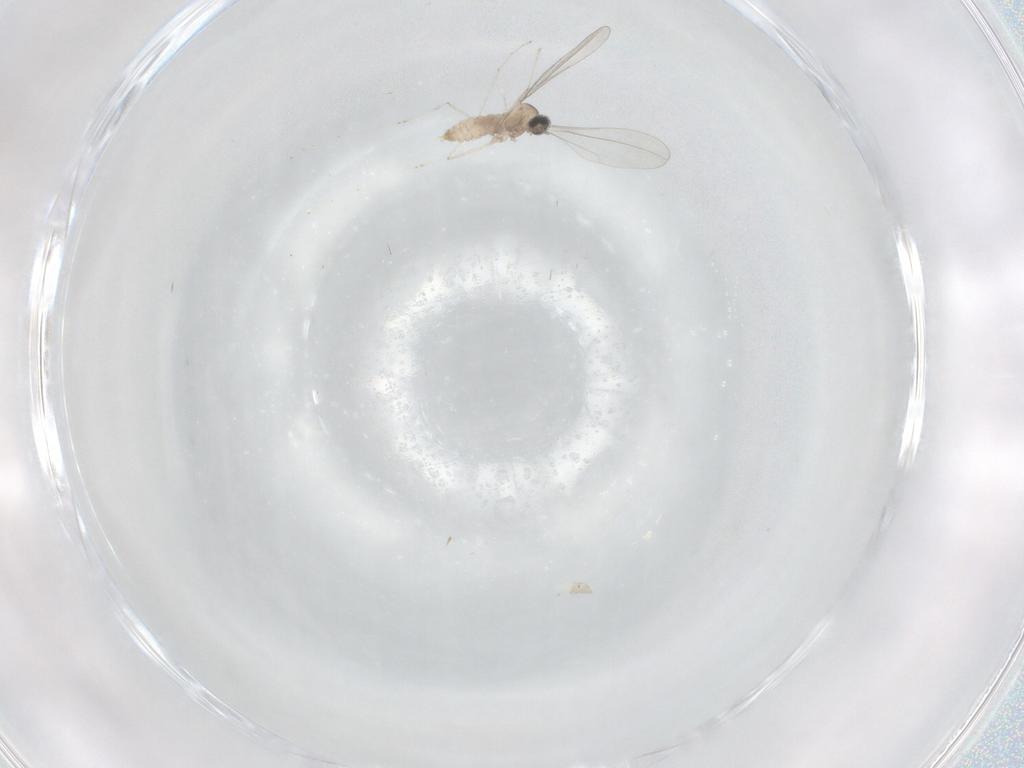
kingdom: Animalia
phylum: Arthropoda
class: Insecta
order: Diptera
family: Cecidomyiidae
